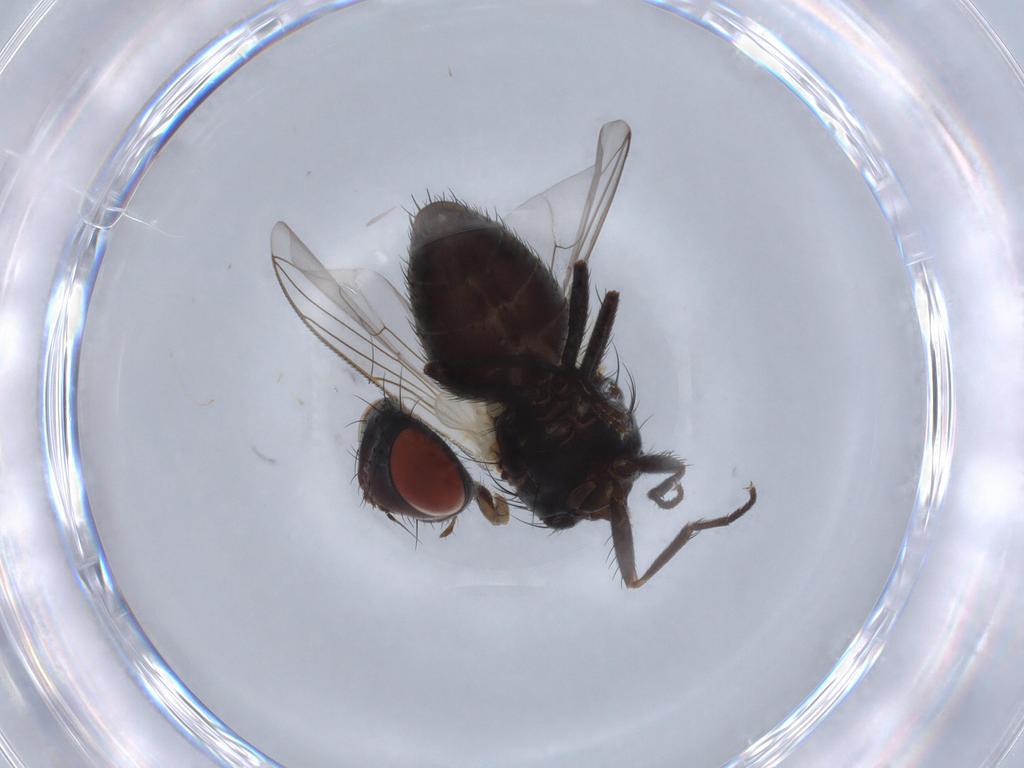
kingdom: Animalia
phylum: Arthropoda
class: Insecta
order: Diptera
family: Sarcophagidae
